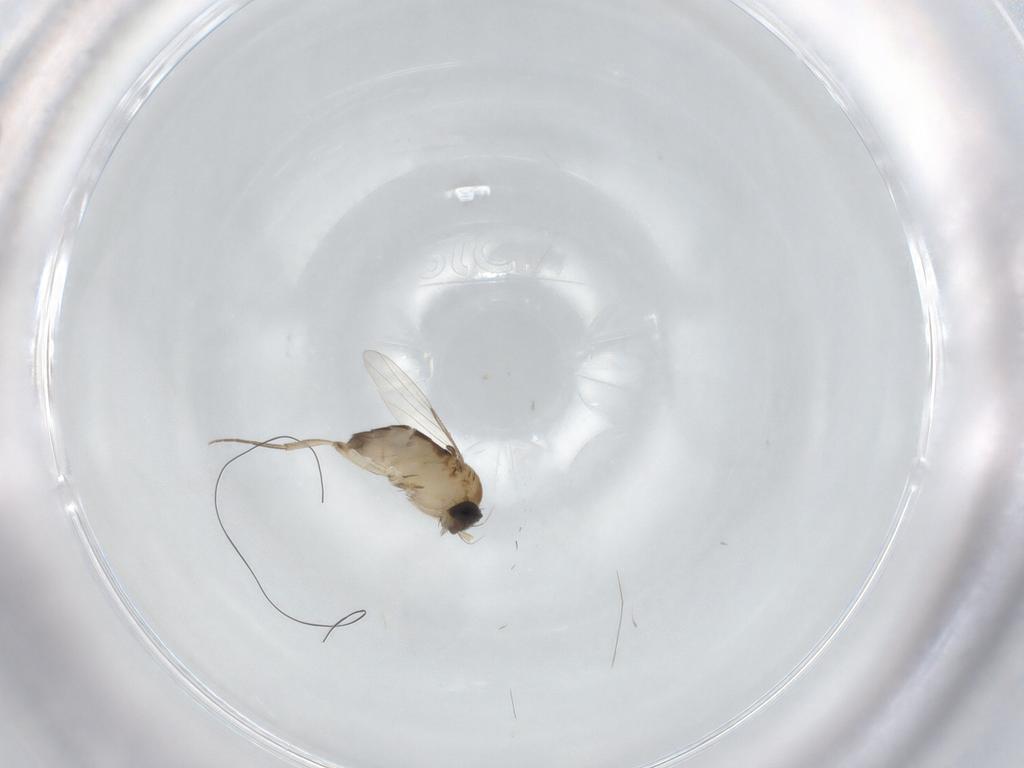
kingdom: Animalia
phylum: Arthropoda
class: Insecta
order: Diptera
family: Phoridae
